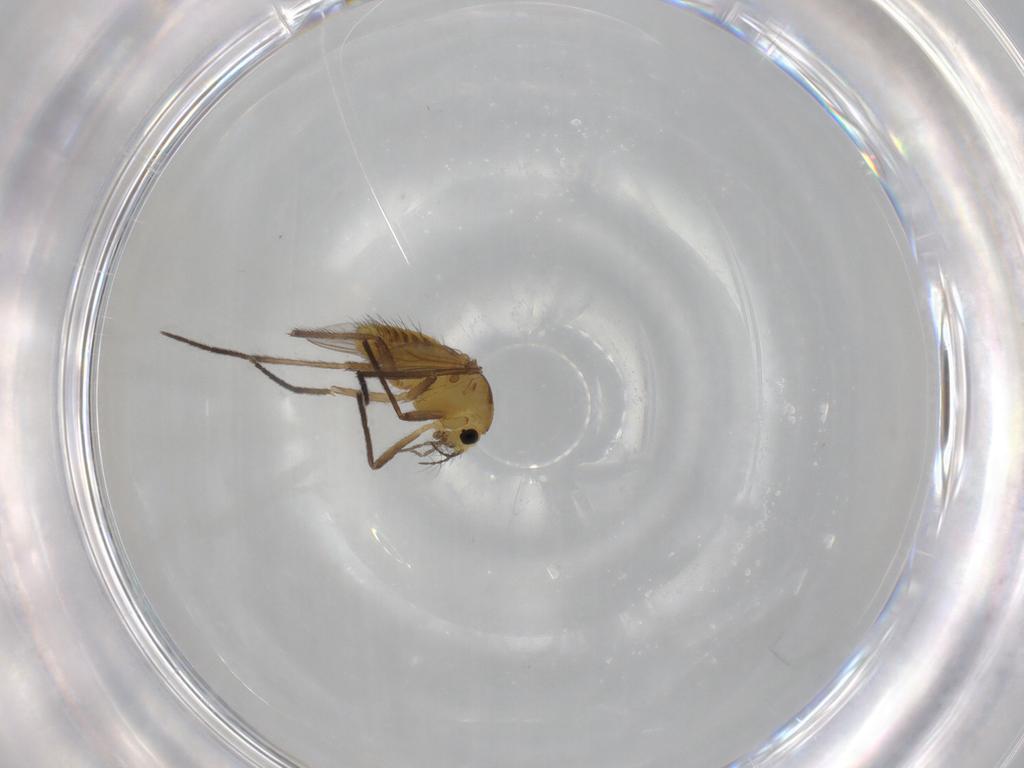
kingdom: Animalia
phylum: Arthropoda
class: Insecta
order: Diptera
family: Chironomidae
